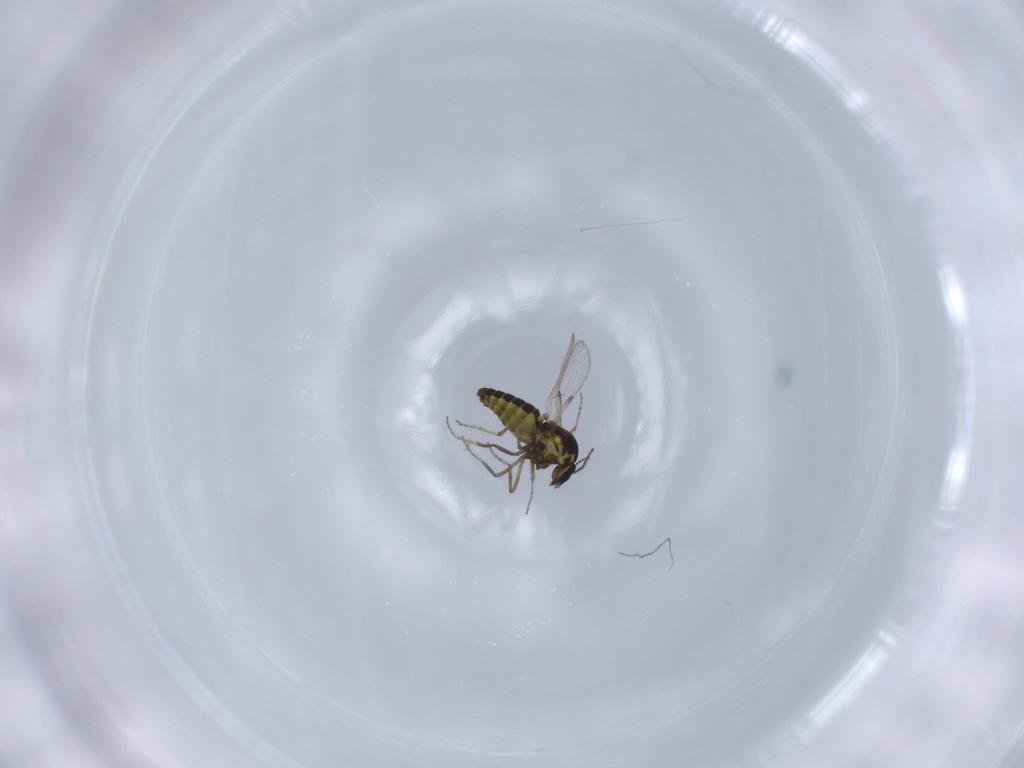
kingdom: Animalia
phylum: Arthropoda
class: Insecta
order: Diptera
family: Ceratopogonidae
